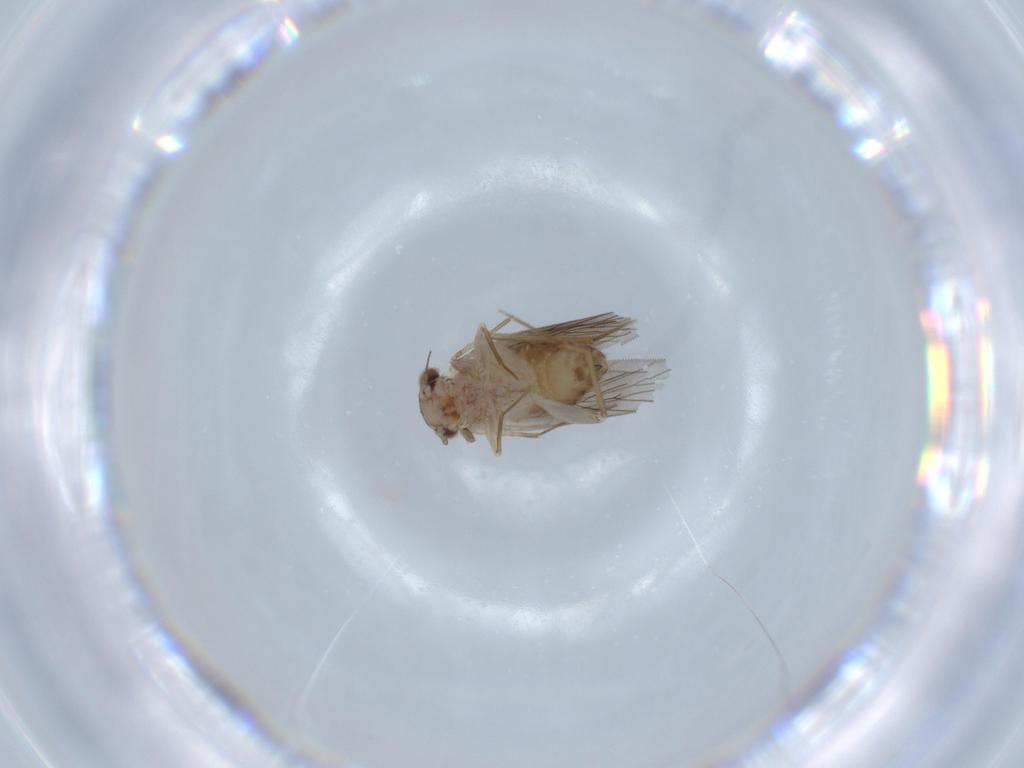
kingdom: Animalia
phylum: Arthropoda
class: Insecta
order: Psocodea
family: Lepidopsocidae
